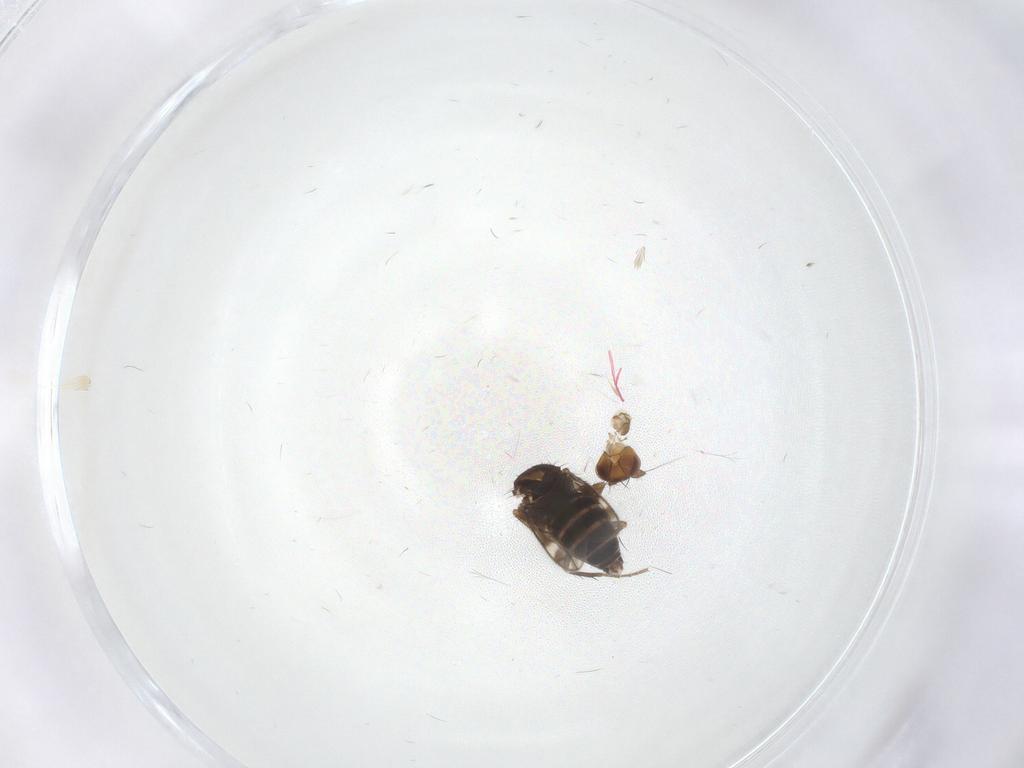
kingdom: Animalia
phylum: Arthropoda
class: Insecta
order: Diptera
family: Sphaeroceridae
